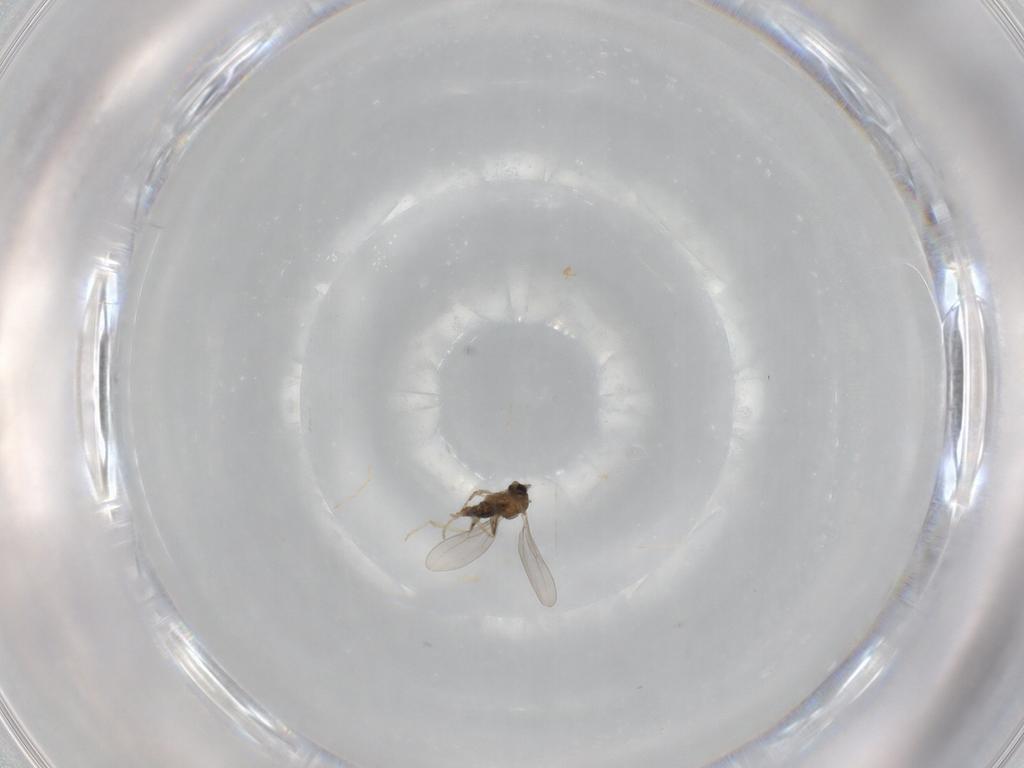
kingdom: Animalia
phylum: Arthropoda
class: Insecta
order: Diptera
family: Cecidomyiidae
